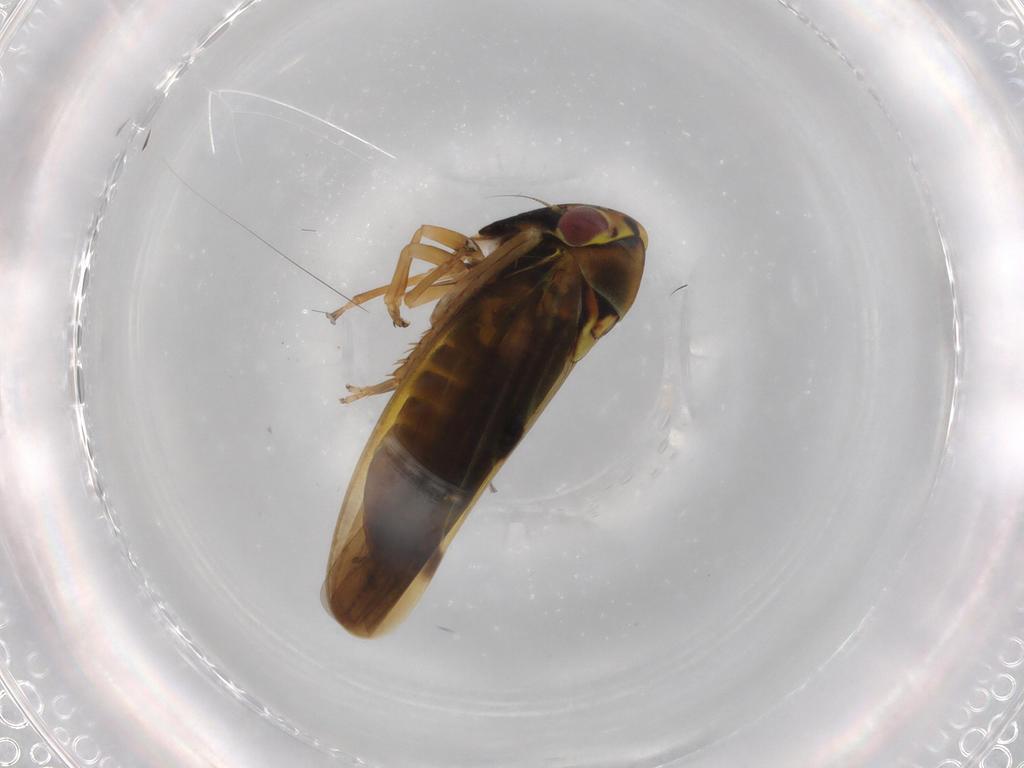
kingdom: Animalia
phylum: Arthropoda
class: Insecta
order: Hemiptera
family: Cicadellidae
